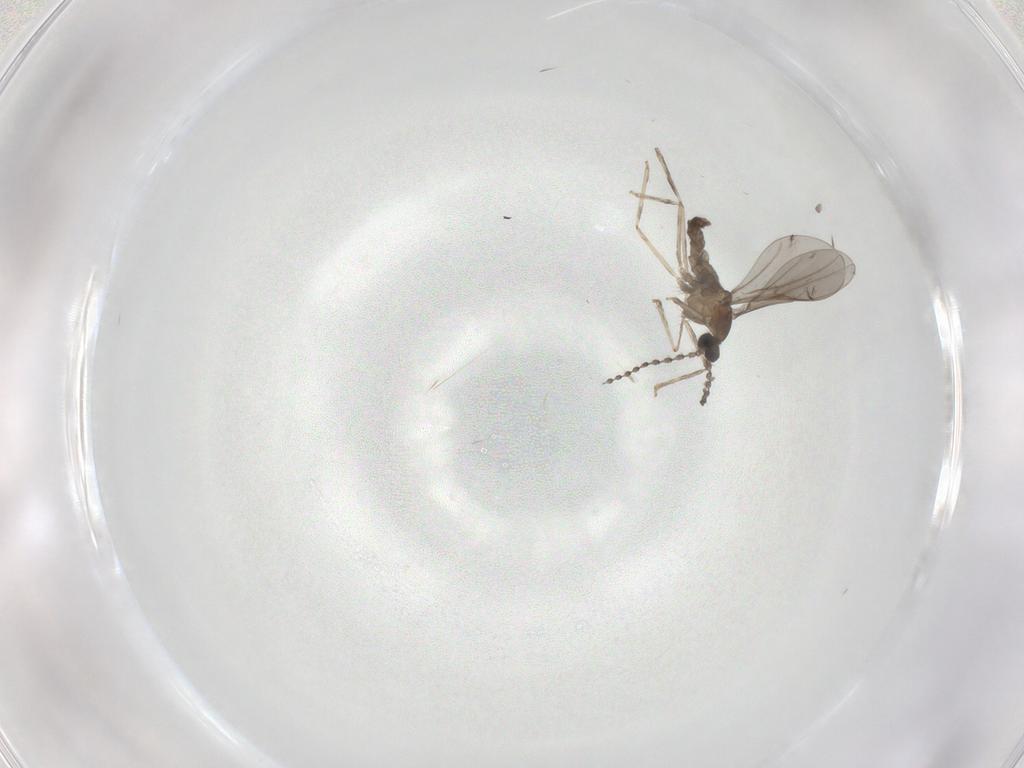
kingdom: Animalia
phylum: Arthropoda
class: Insecta
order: Diptera
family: Cecidomyiidae
